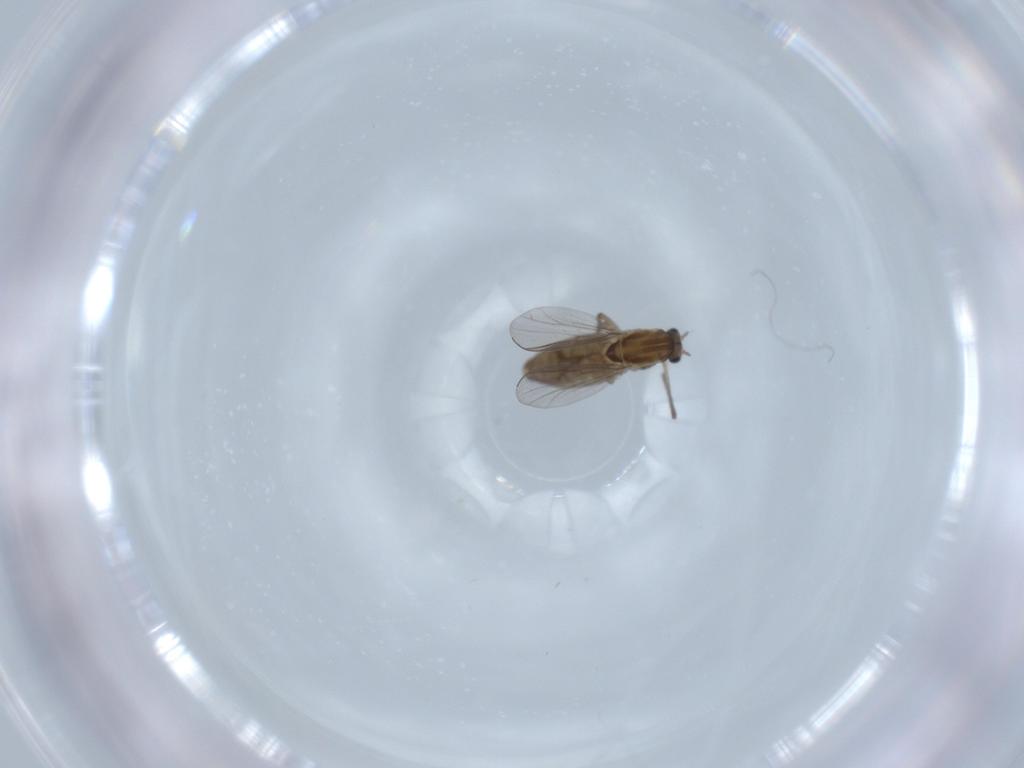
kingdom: Animalia
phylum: Arthropoda
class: Insecta
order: Diptera
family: Chironomidae
